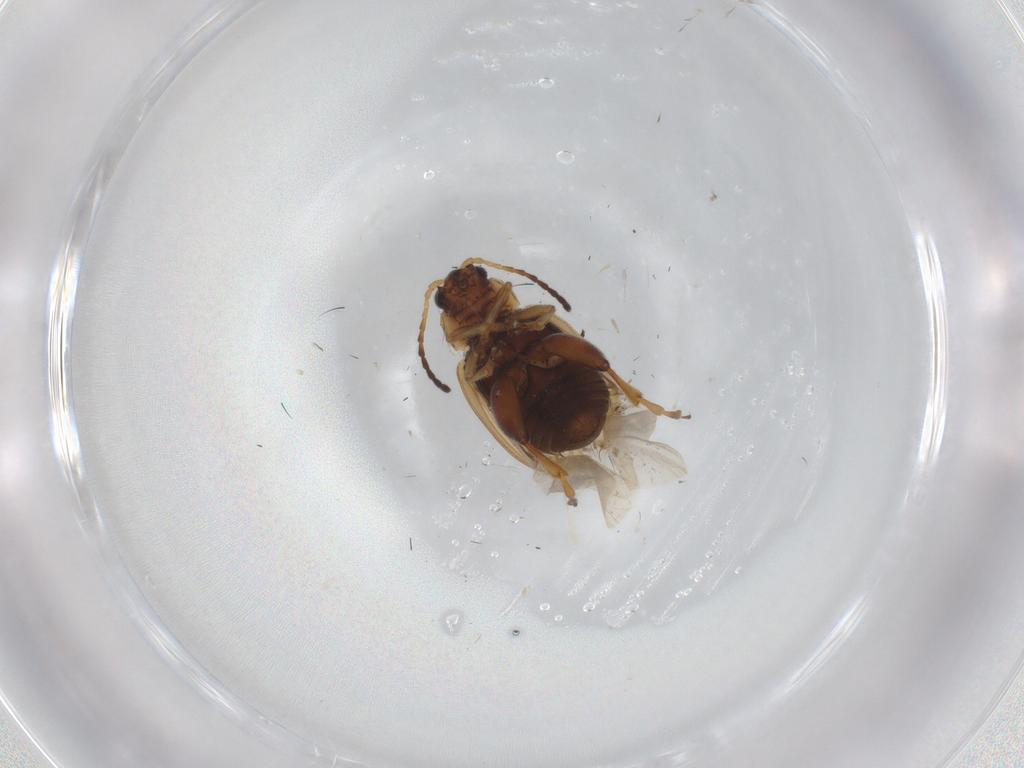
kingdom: Animalia
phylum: Arthropoda
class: Insecta
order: Coleoptera
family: Chrysomelidae
